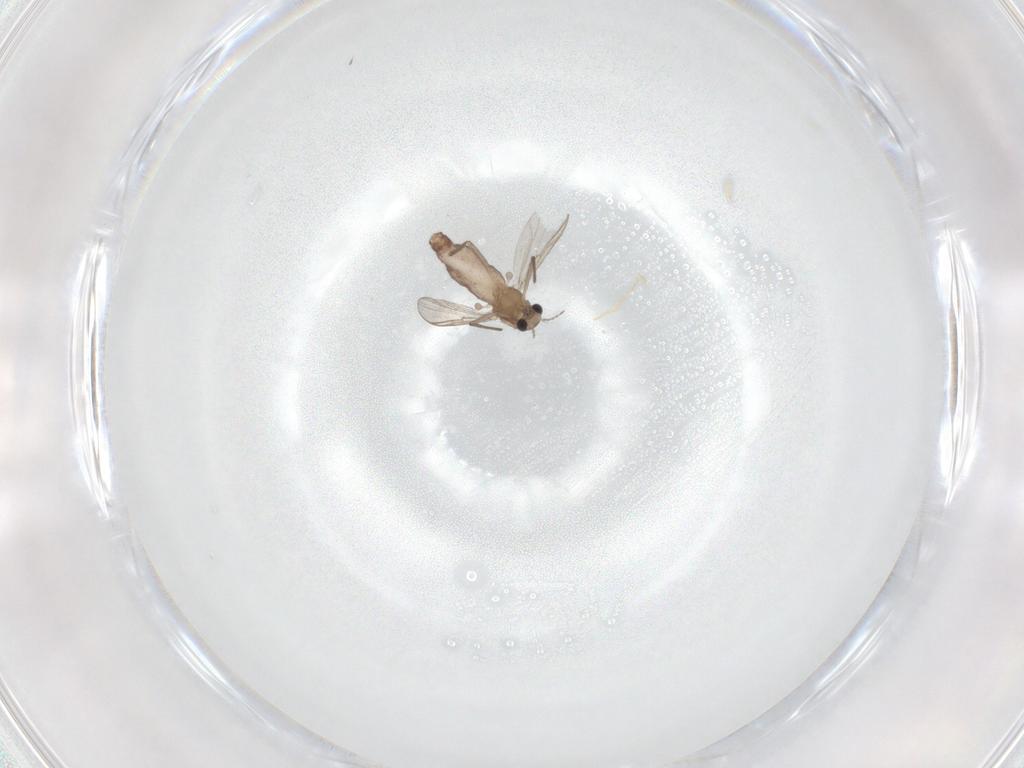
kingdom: Animalia
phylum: Arthropoda
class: Insecta
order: Diptera
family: Chironomidae
